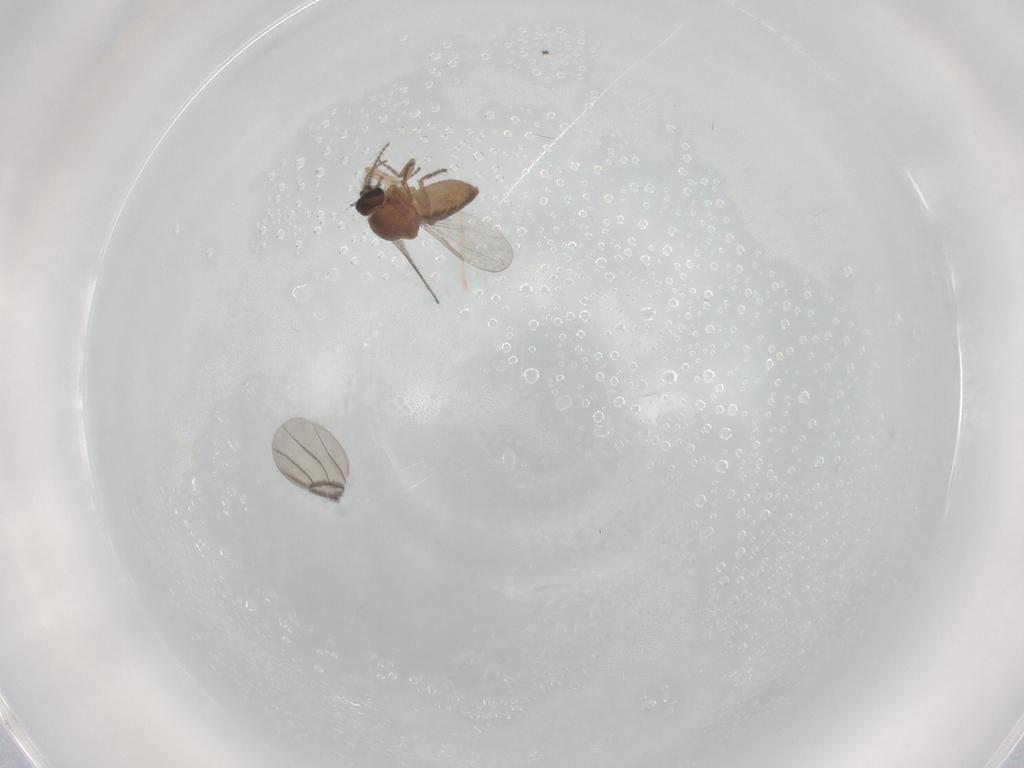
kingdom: Animalia
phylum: Arthropoda
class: Insecta
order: Diptera
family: Ceratopogonidae
